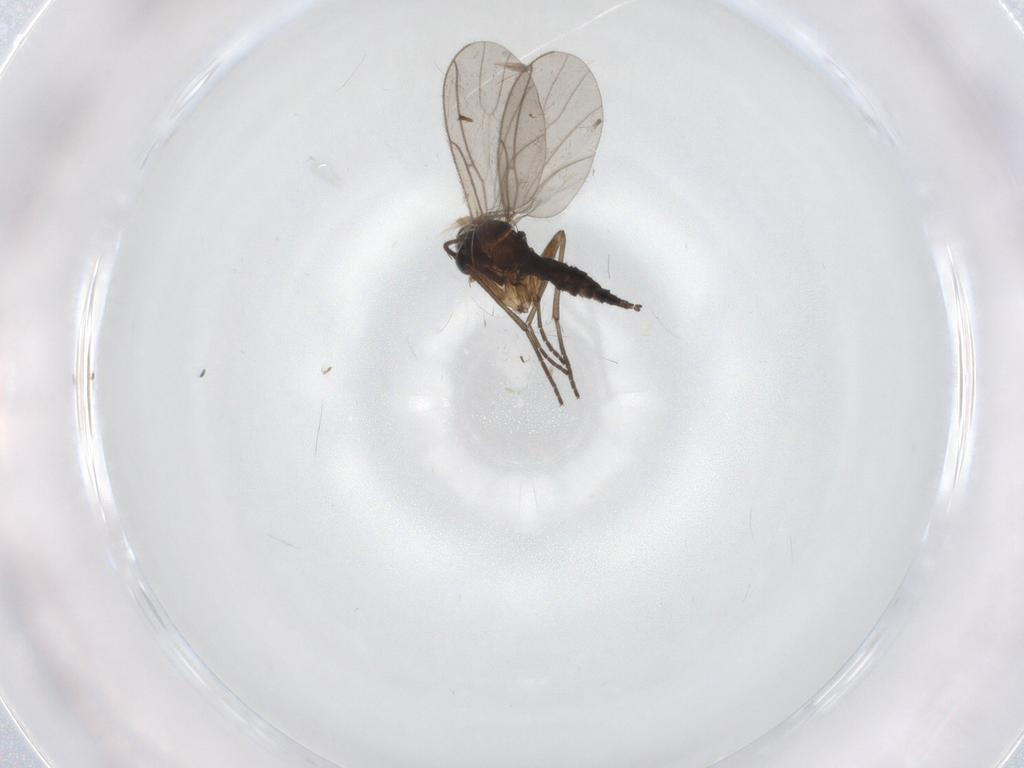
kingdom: Animalia
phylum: Arthropoda
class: Insecta
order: Diptera
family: Sciaridae
